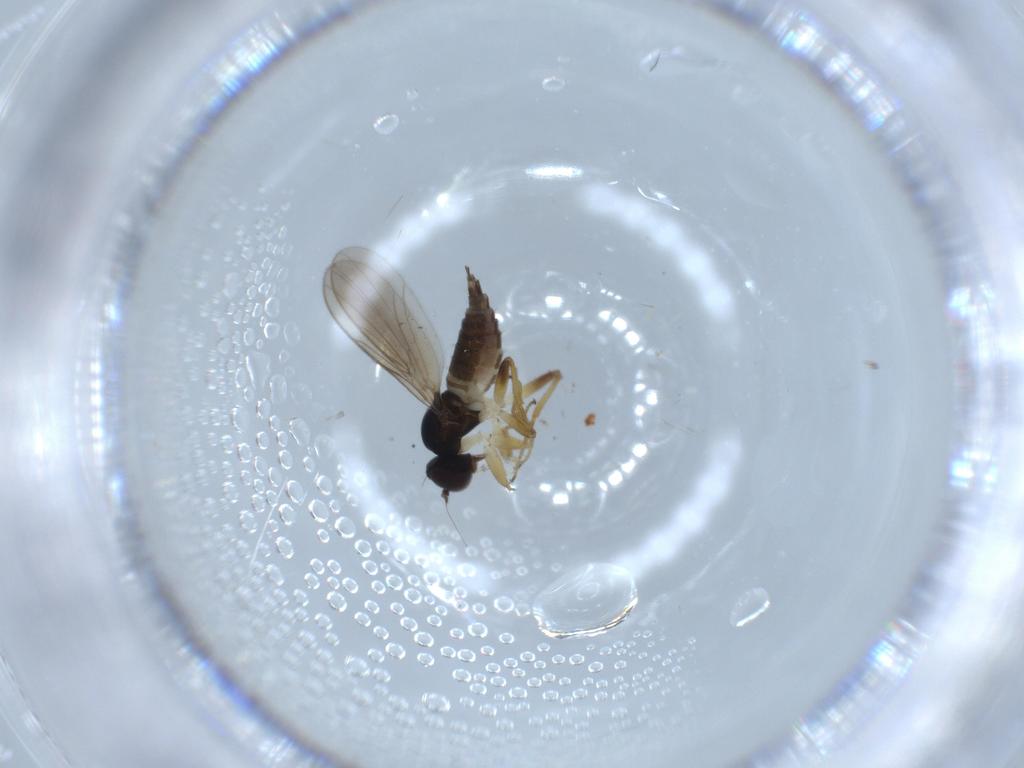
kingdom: Animalia
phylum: Arthropoda
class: Insecta
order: Diptera
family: Hybotidae
